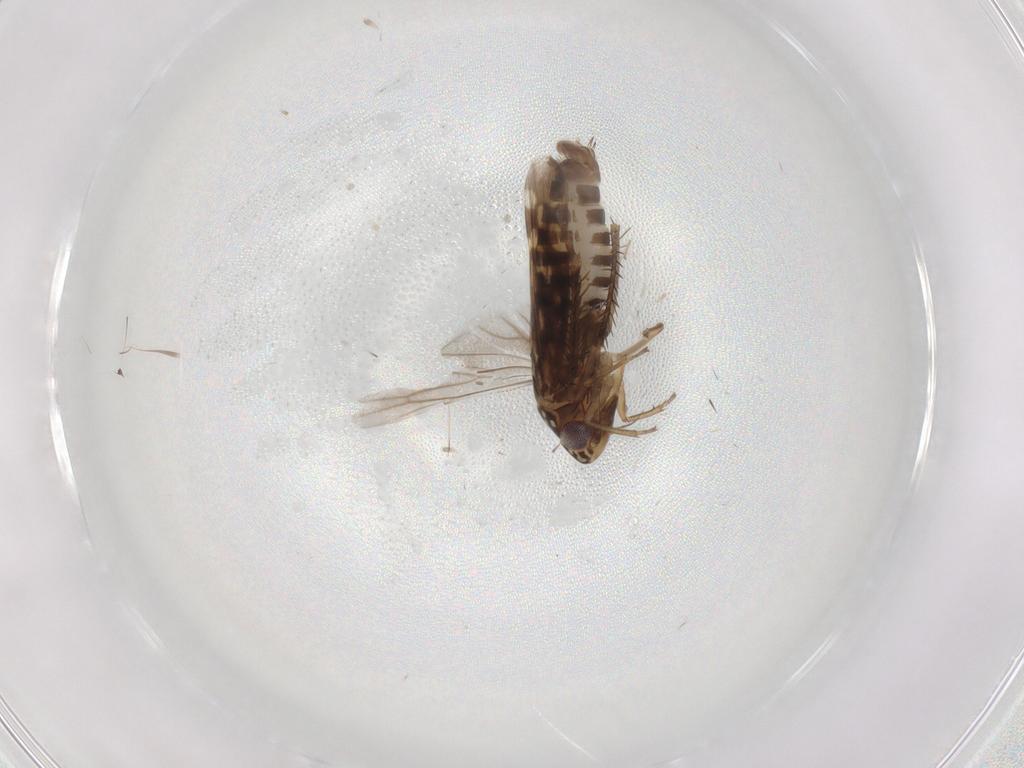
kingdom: Animalia
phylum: Arthropoda
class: Insecta
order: Hemiptera
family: Cicadellidae
